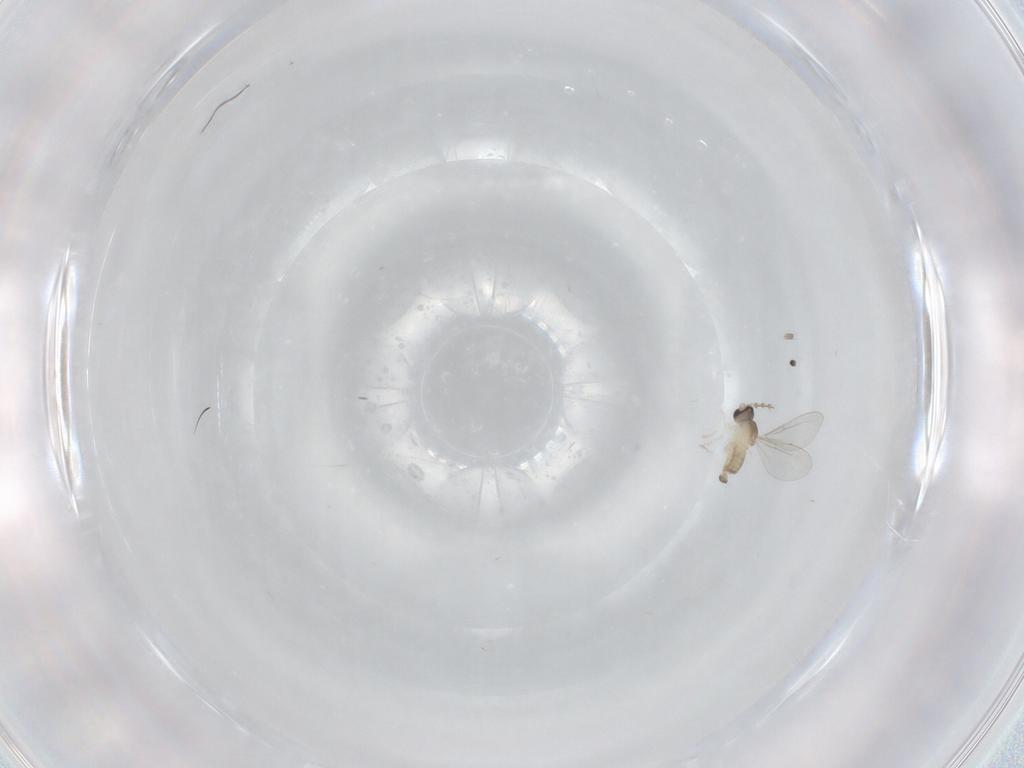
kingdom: Animalia
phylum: Arthropoda
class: Insecta
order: Diptera
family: Cecidomyiidae
